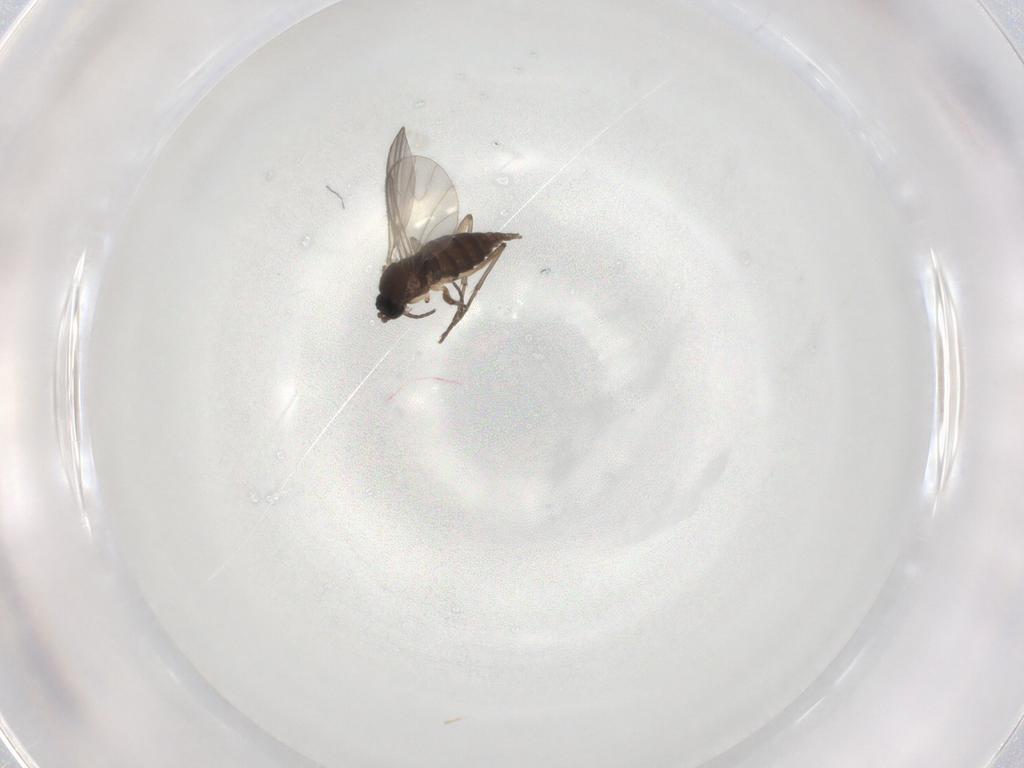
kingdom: Animalia
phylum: Arthropoda
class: Insecta
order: Diptera
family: Sciaridae
